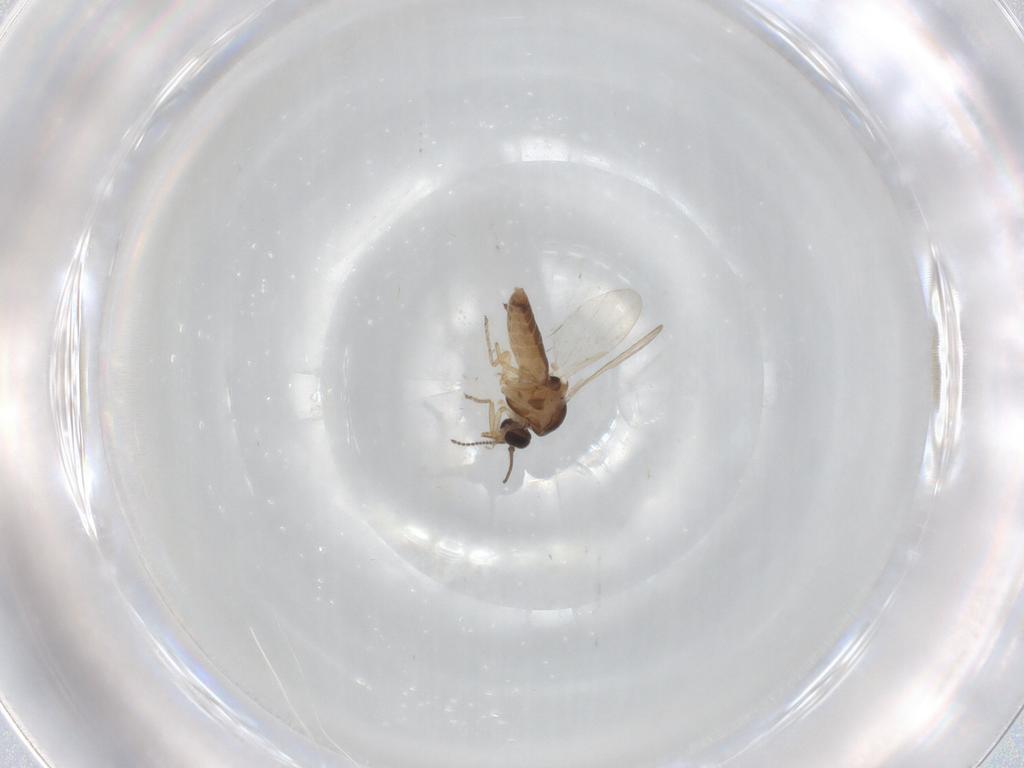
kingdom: Animalia
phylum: Arthropoda
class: Insecta
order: Diptera
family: Ceratopogonidae
